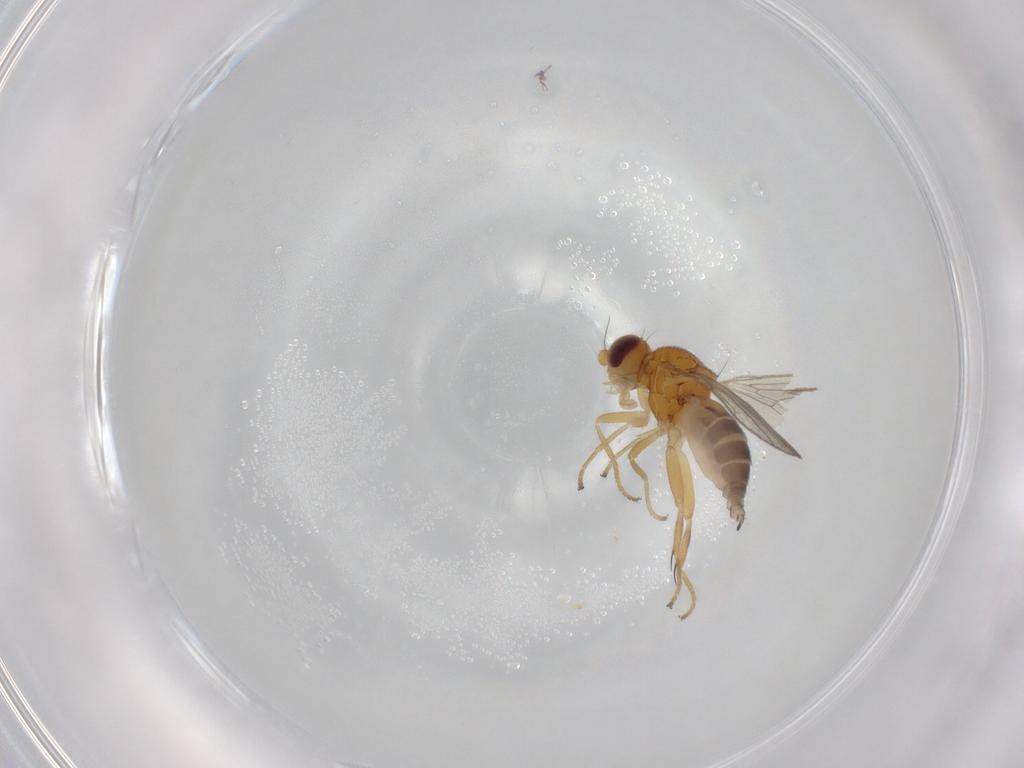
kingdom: Animalia
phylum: Arthropoda
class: Insecta
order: Diptera
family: Chloropidae
